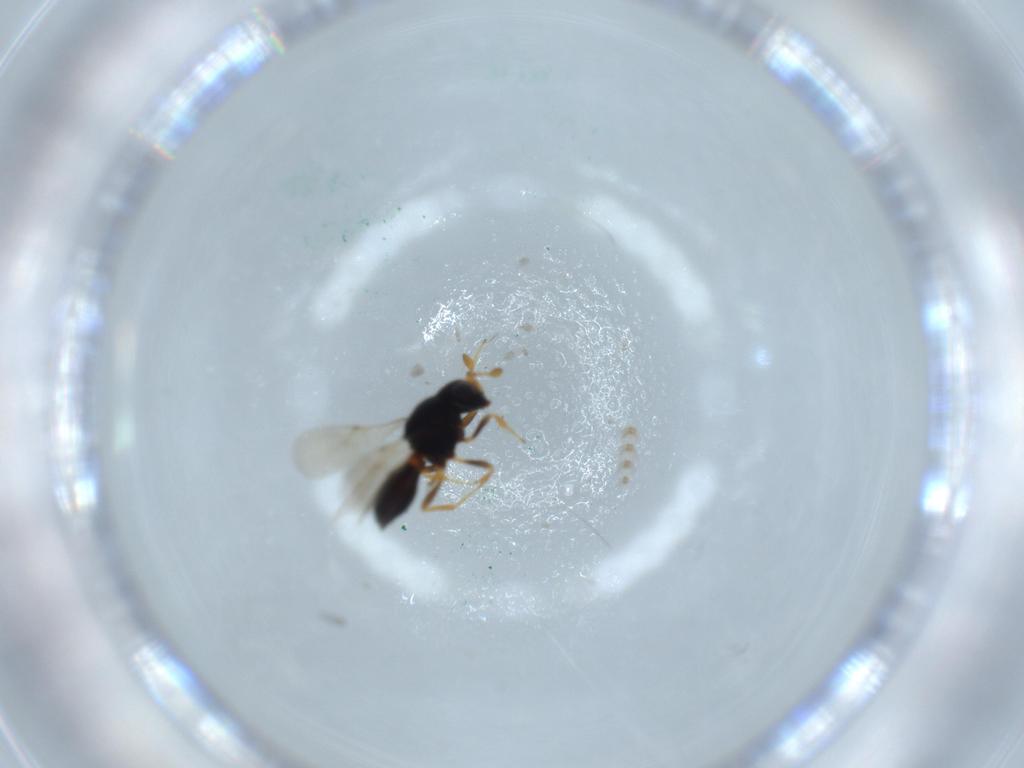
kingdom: Animalia
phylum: Arthropoda
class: Insecta
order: Hymenoptera
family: Scelionidae
